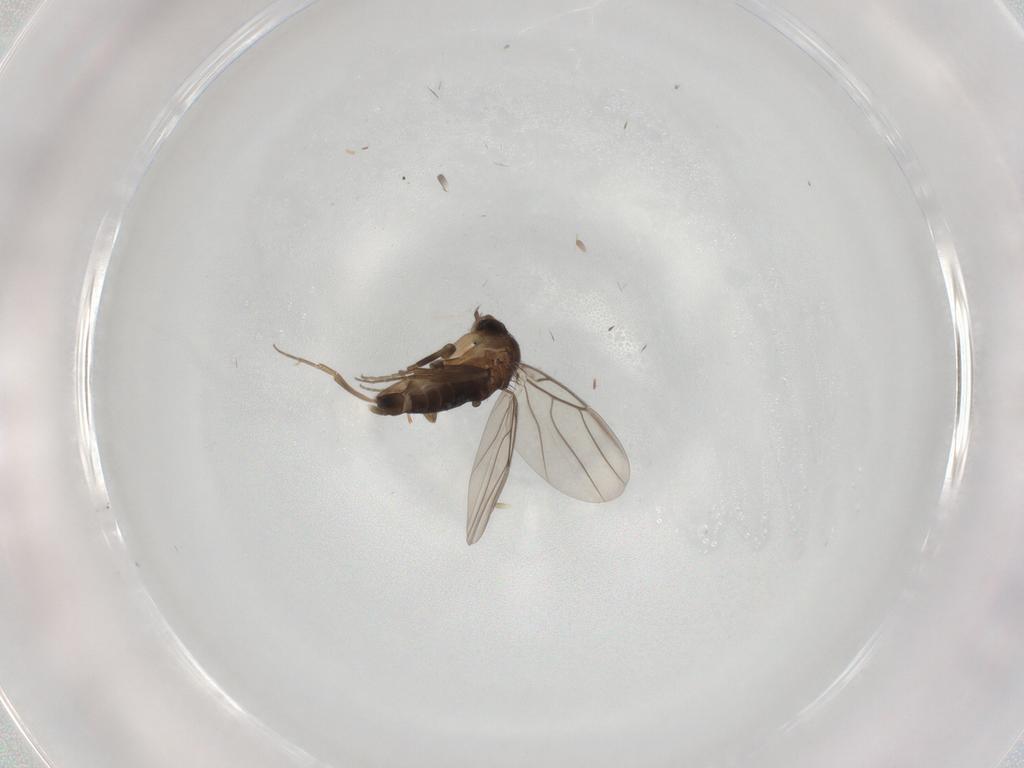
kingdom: Animalia
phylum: Arthropoda
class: Insecta
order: Diptera
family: Phoridae
